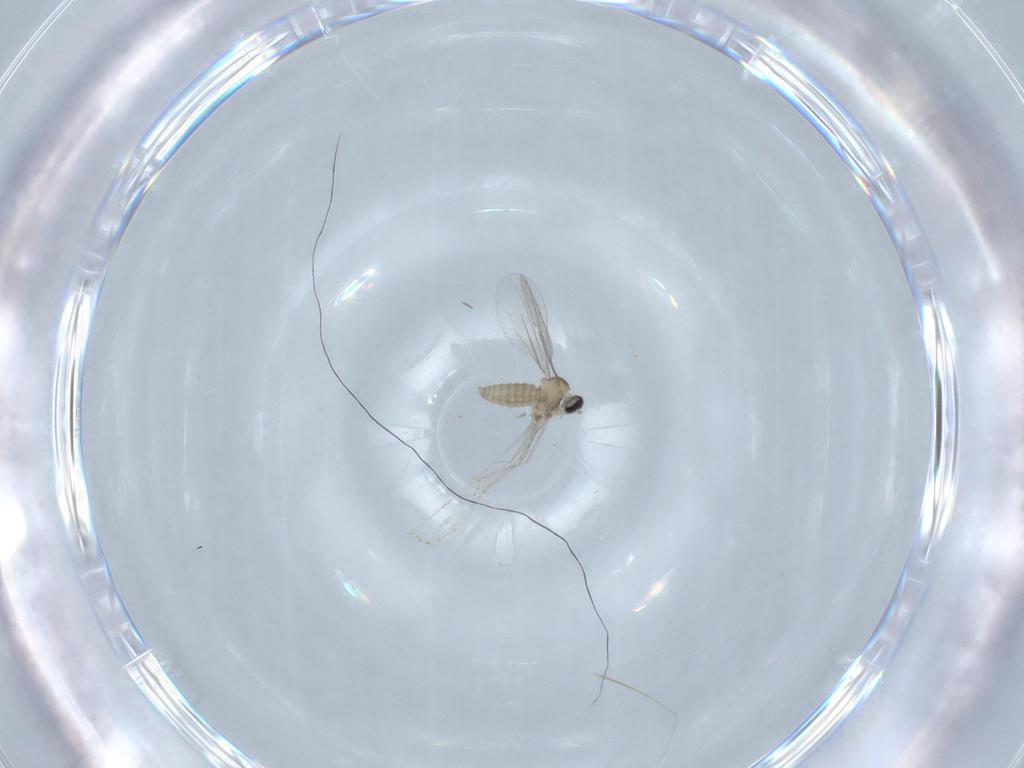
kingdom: Animalia
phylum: Arthropoda
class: Insecta
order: Diptera
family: Cecidomyiidae
